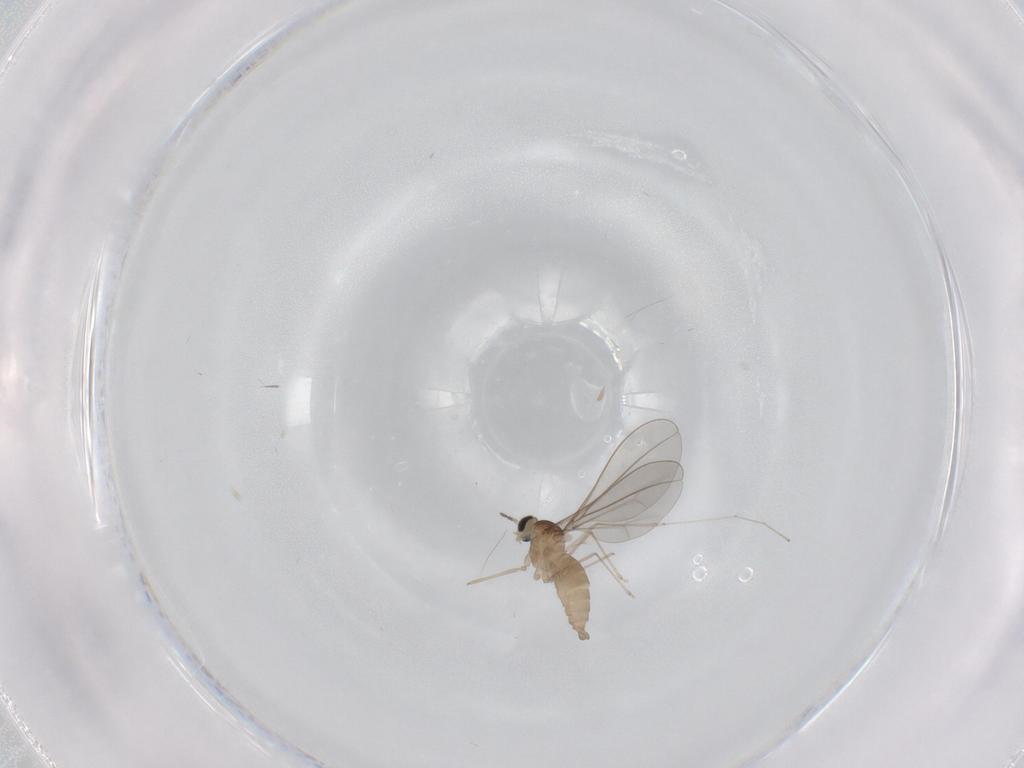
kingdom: Animalia
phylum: Arthropoda
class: Insecta
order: Diptera
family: Cecidomyiidae
